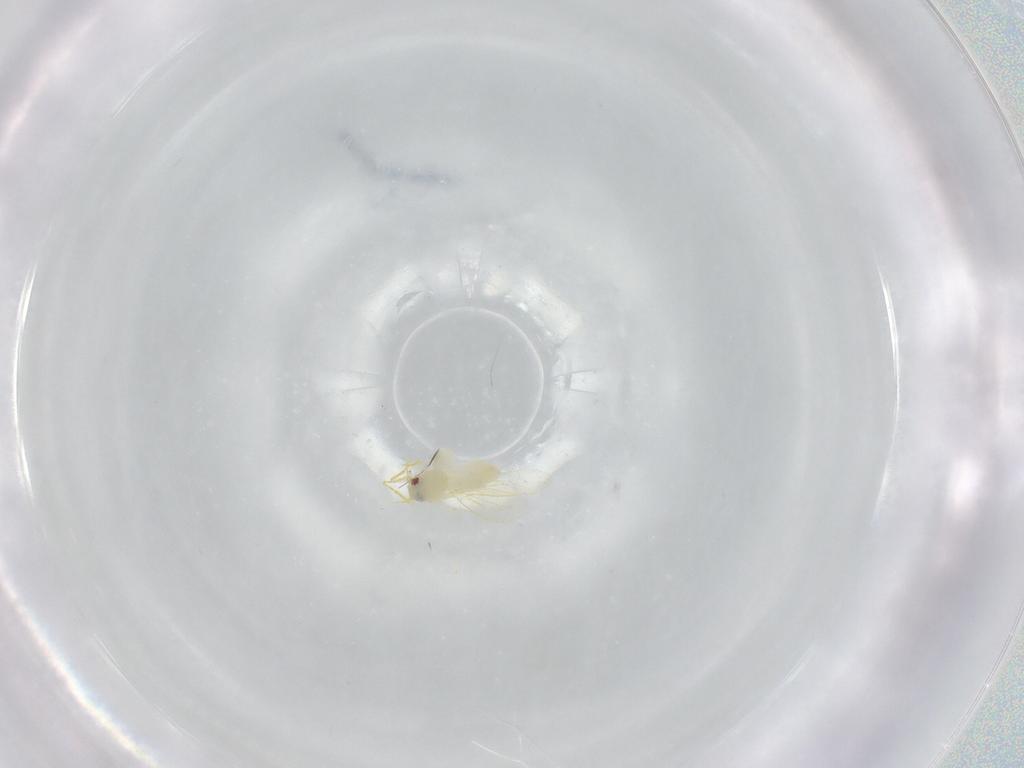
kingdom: Animalia
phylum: Arthropoda
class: Insecta
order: Hemiptera
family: Aleyrodidae
